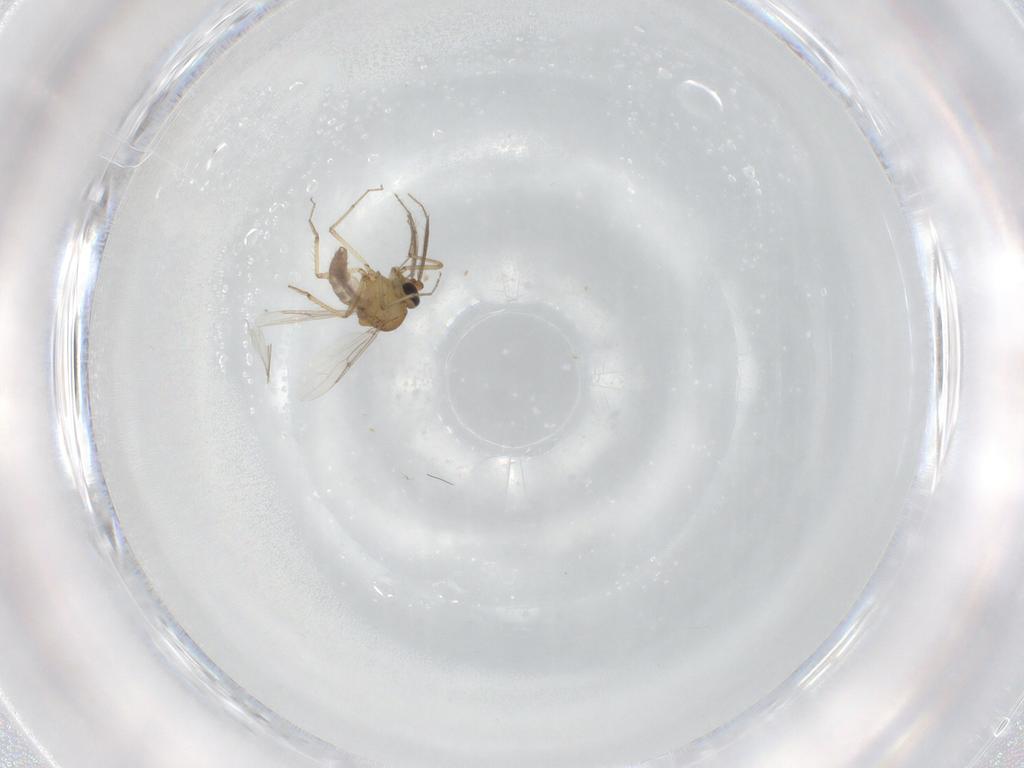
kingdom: Animalia
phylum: Arthropoda
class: Insecta
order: Diptera
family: Ceratopogonidae
